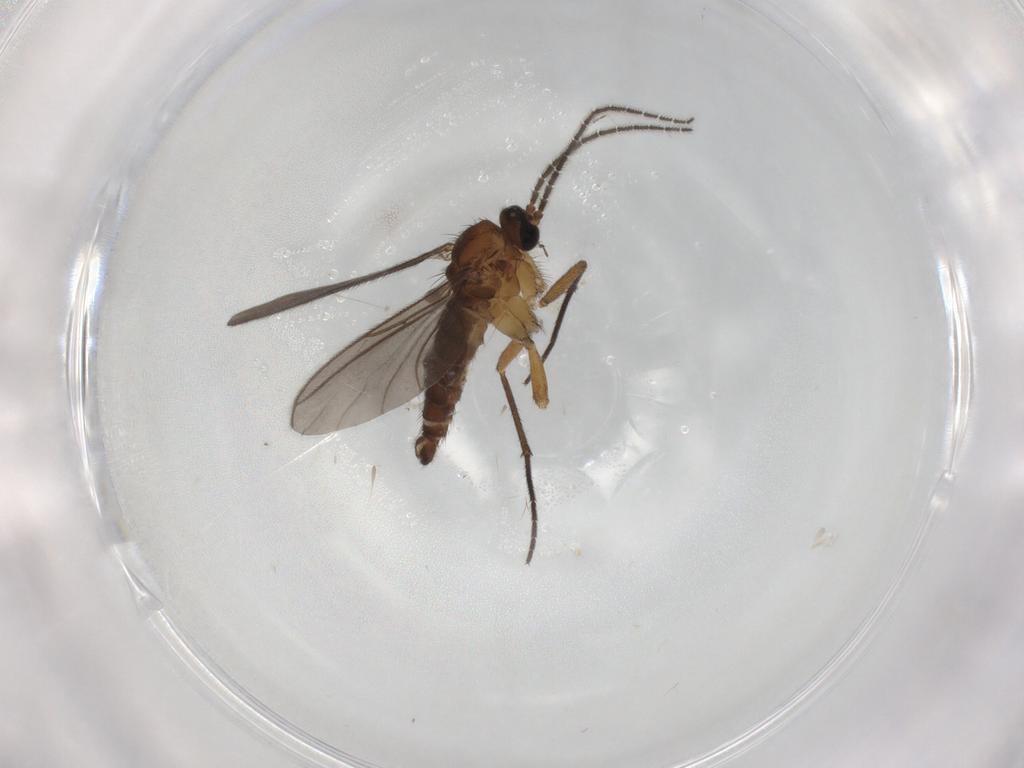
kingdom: Animalia
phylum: Arthropoda
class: Insecta
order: Diptera
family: Sciaridae
